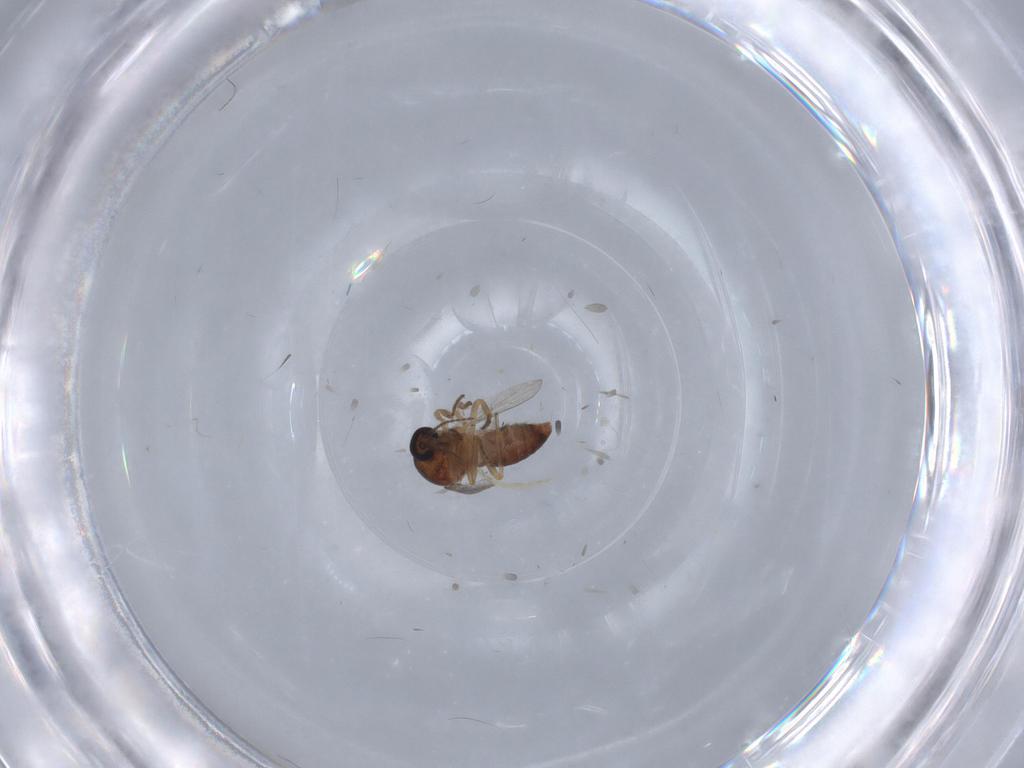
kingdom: Animalia
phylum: Arthropoda
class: Insecta
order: Diptera
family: Ceratopogonidae
